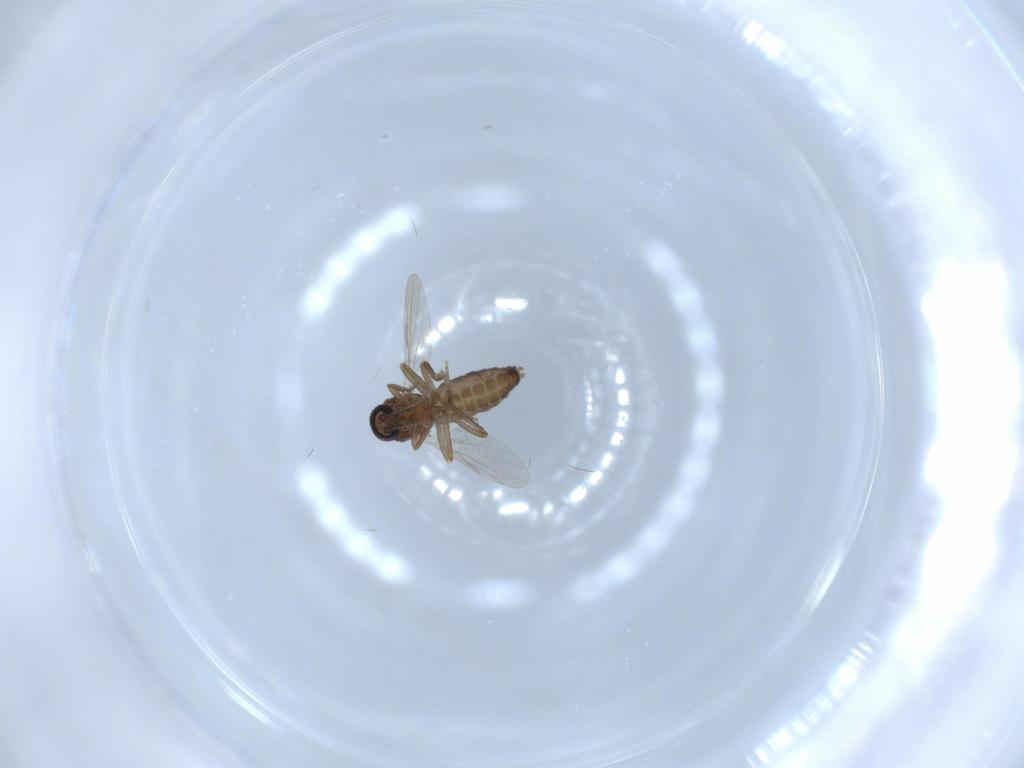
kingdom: Animalia
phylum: Arthropoda
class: Insecta
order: Diptera
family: Ceratopogonidae
